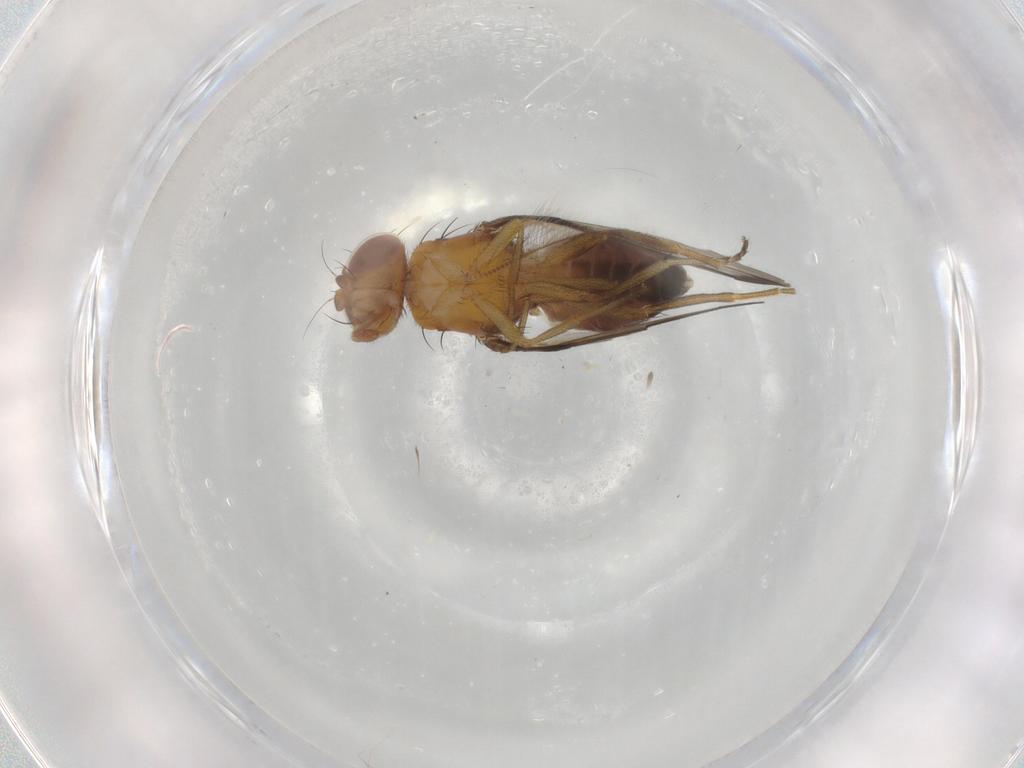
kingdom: Animalia
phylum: Arthropoda
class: Insecta
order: Diptera
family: Piophilidae
